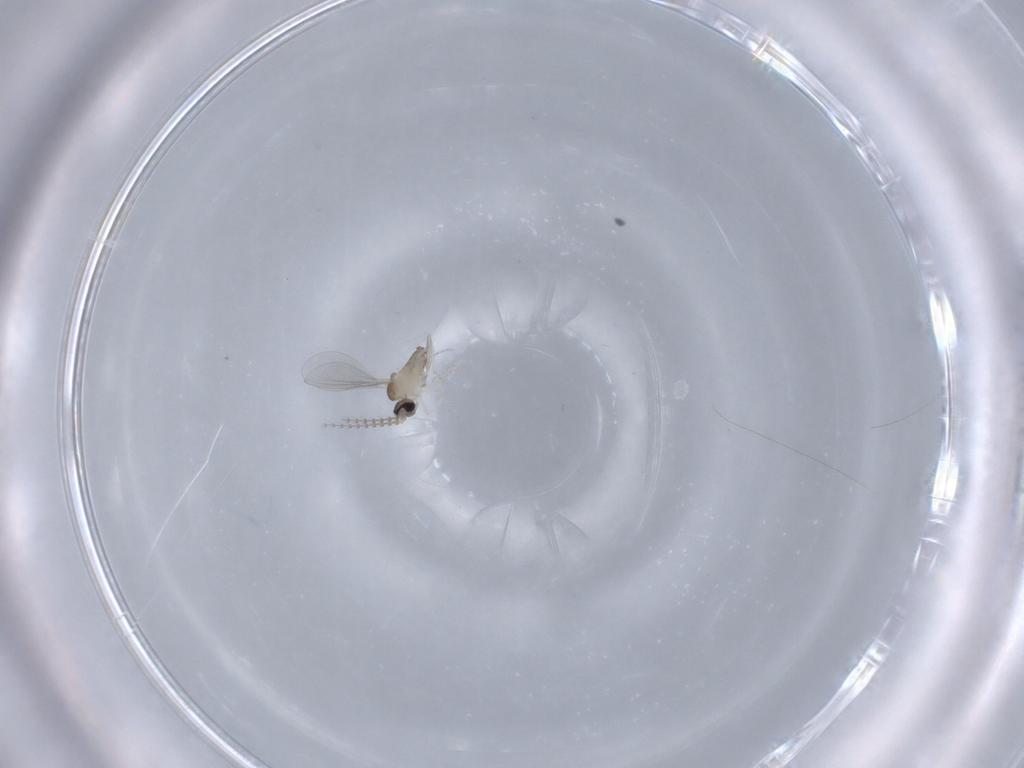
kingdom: Animalia
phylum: Arthropoda
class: Insecta
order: Diptera
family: Cecidomyiidae
